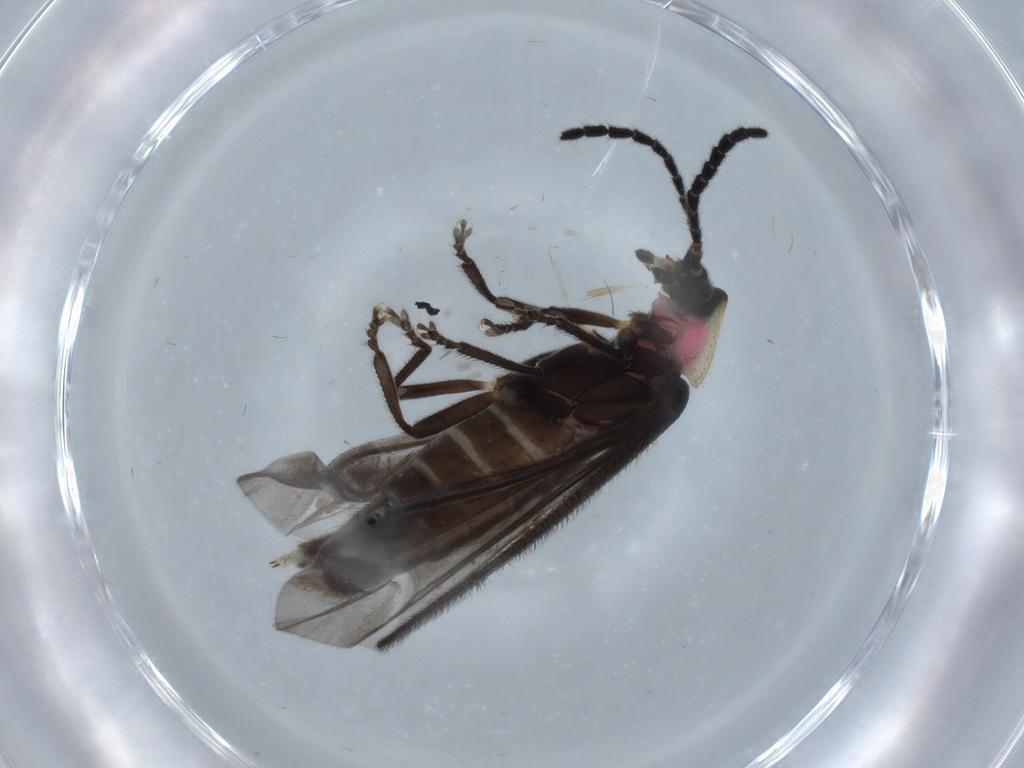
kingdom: Animalia
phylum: Arthropoda
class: Insecta
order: Coleoptera
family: Lampyridae
